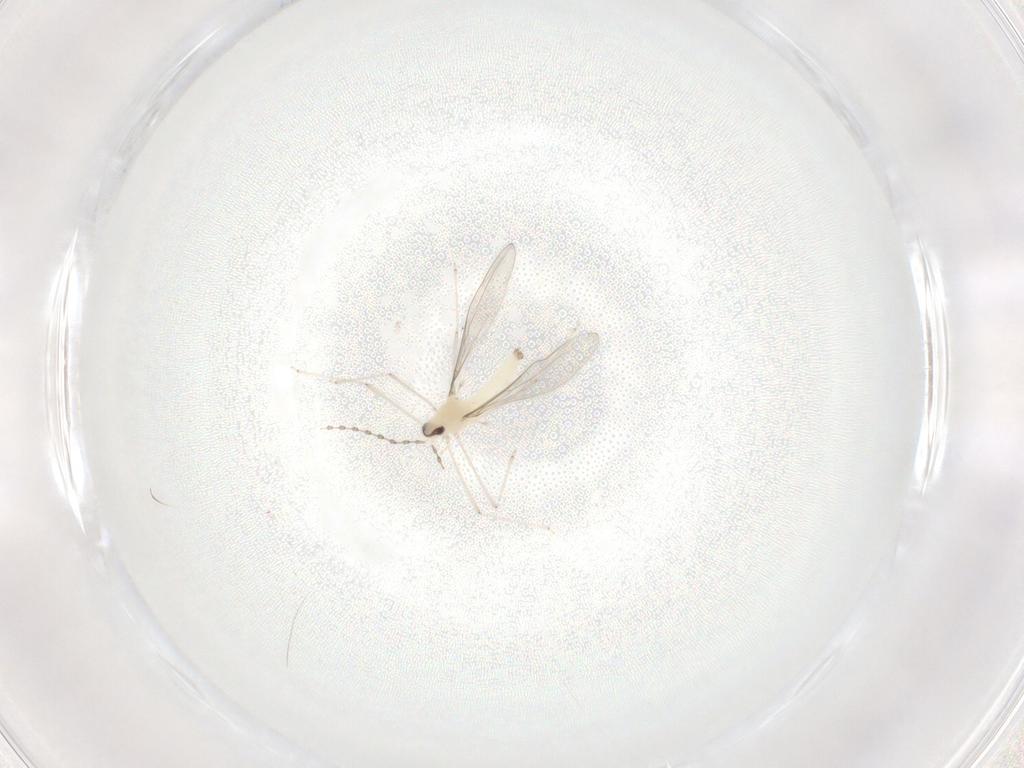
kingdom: Animalia
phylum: Arthropoda
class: Insecta
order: Diptera
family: Cecidomyiidae
